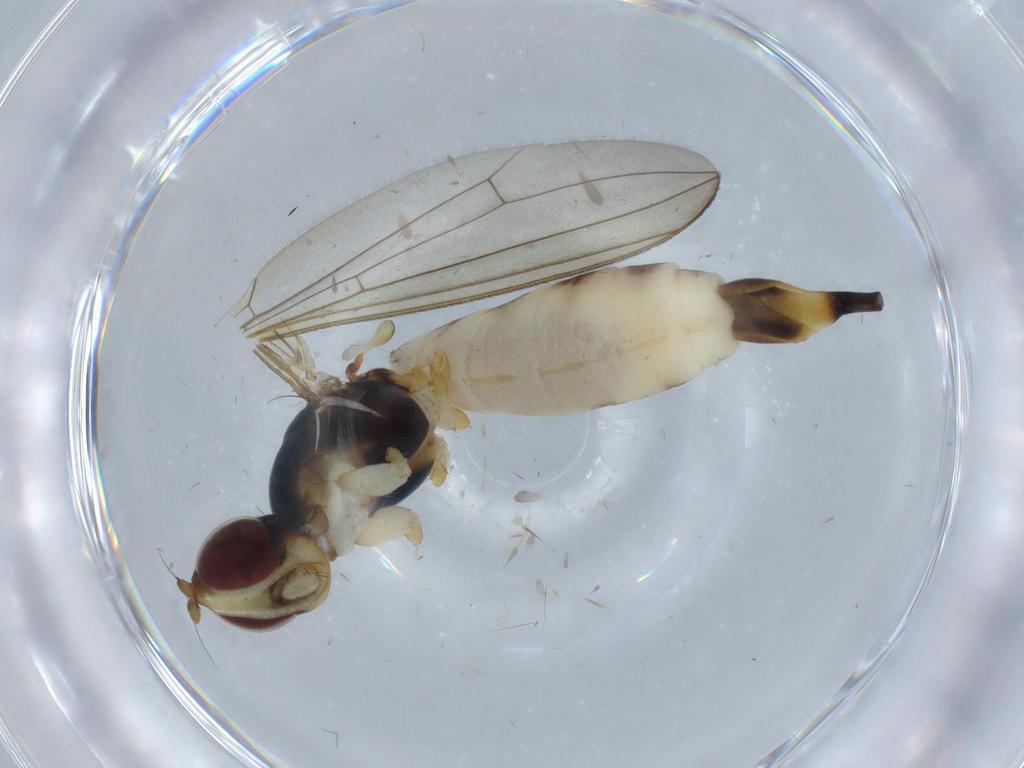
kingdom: Animalia
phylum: Arthropoda
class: Insecta
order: Diptera
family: Micropezidae
